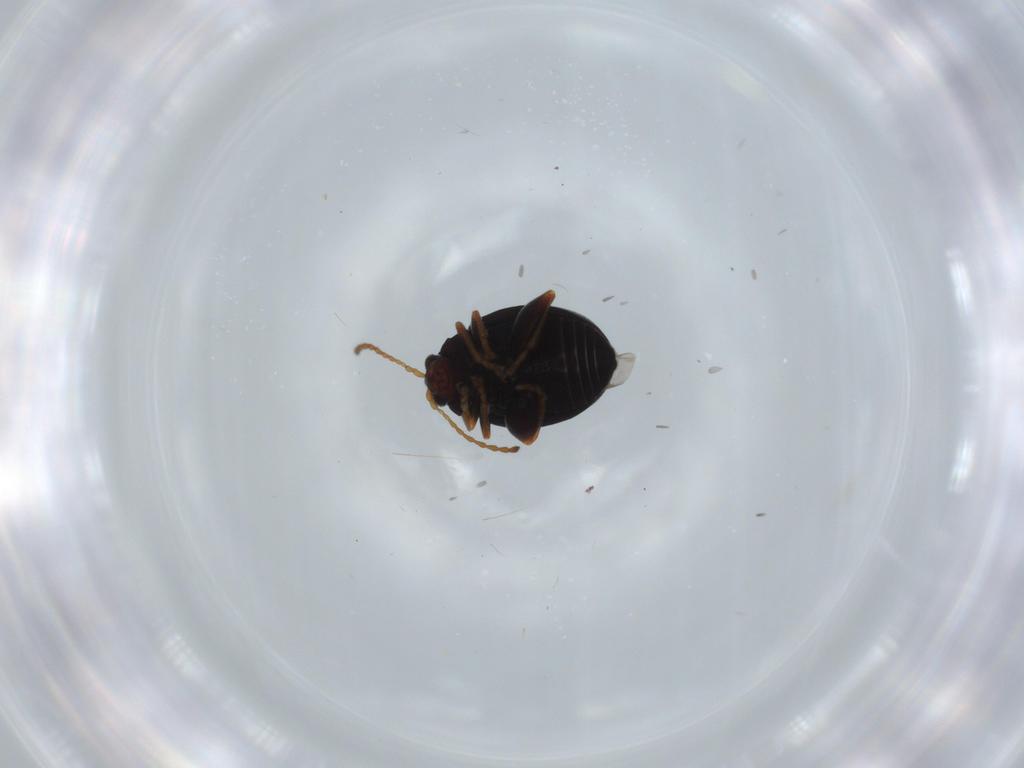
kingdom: Animalia
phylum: Arthropoda
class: Insecta
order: Coleoptera
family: Chrysomelidae
